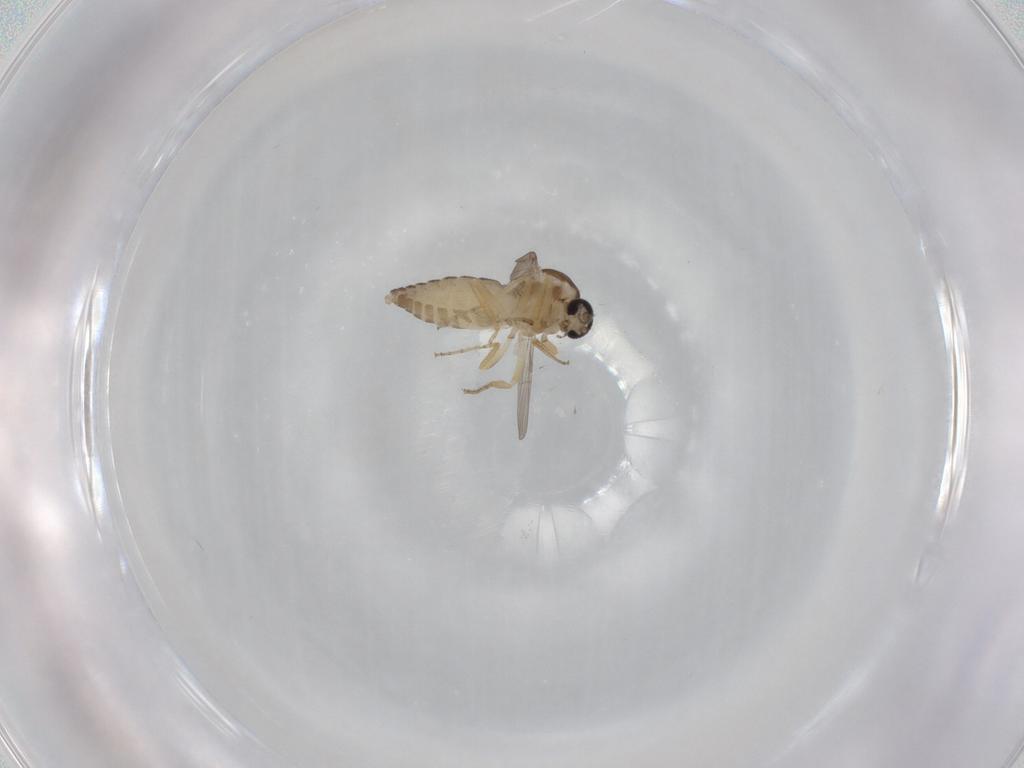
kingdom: Animalia
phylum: Arthropoda
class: Insecta
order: Diptera
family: Ceratopogonidae
